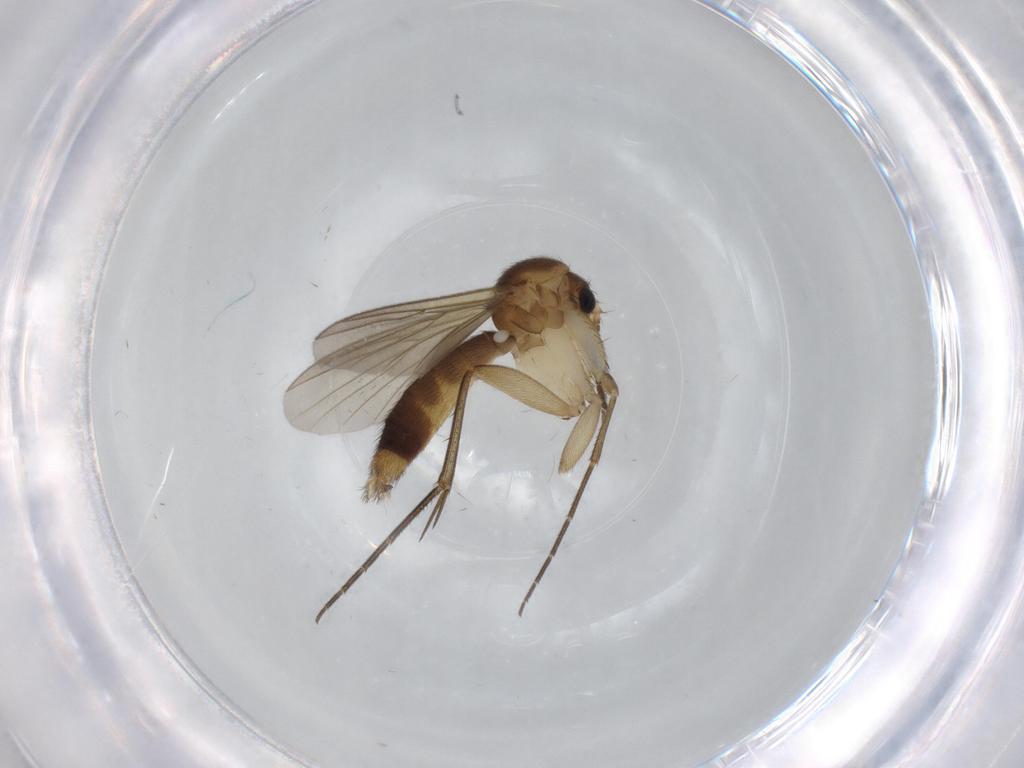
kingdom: Animalia
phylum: Arthropoda
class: Insecta
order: Diptera
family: Hybotidae
